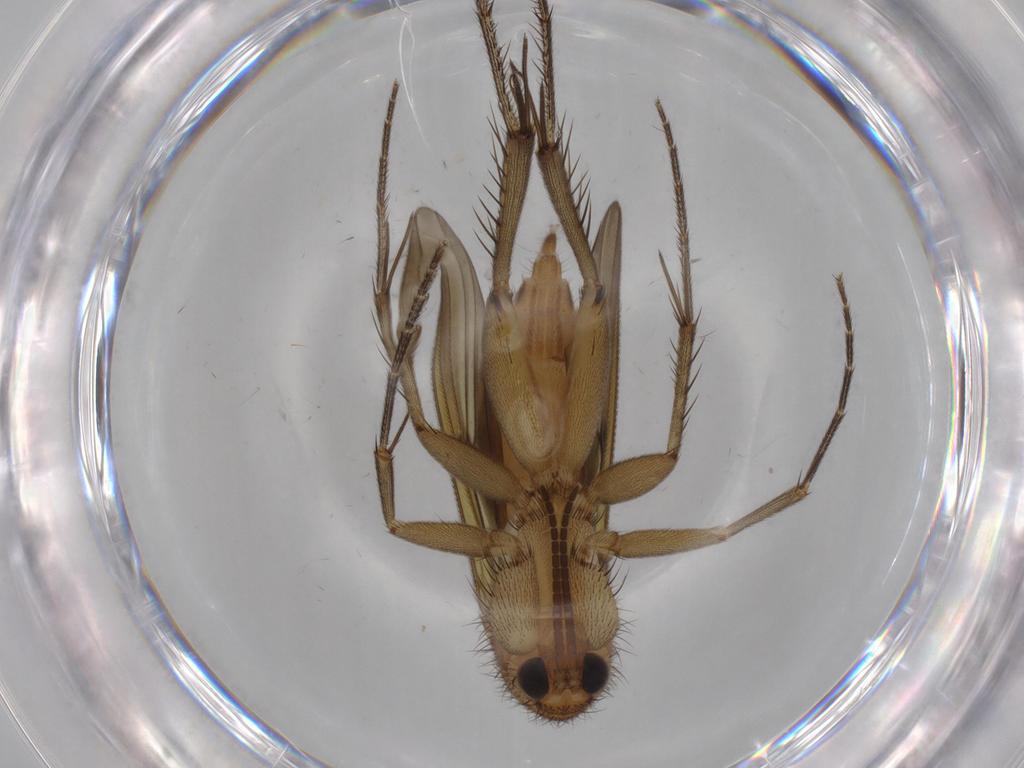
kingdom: Animalia
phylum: Arthropoda
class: Insecta
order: Diptera
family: Mycetophilidae
